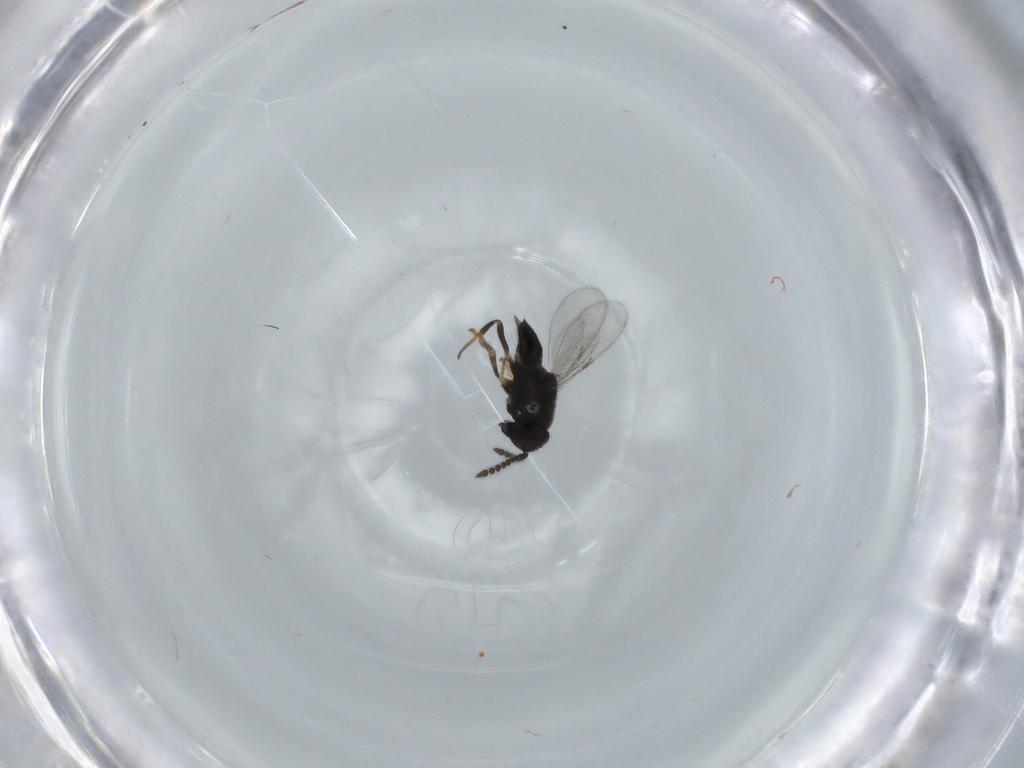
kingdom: Animalia
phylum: Arthropoda
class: Insecta
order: Hymenoptera
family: Encyrtidae
